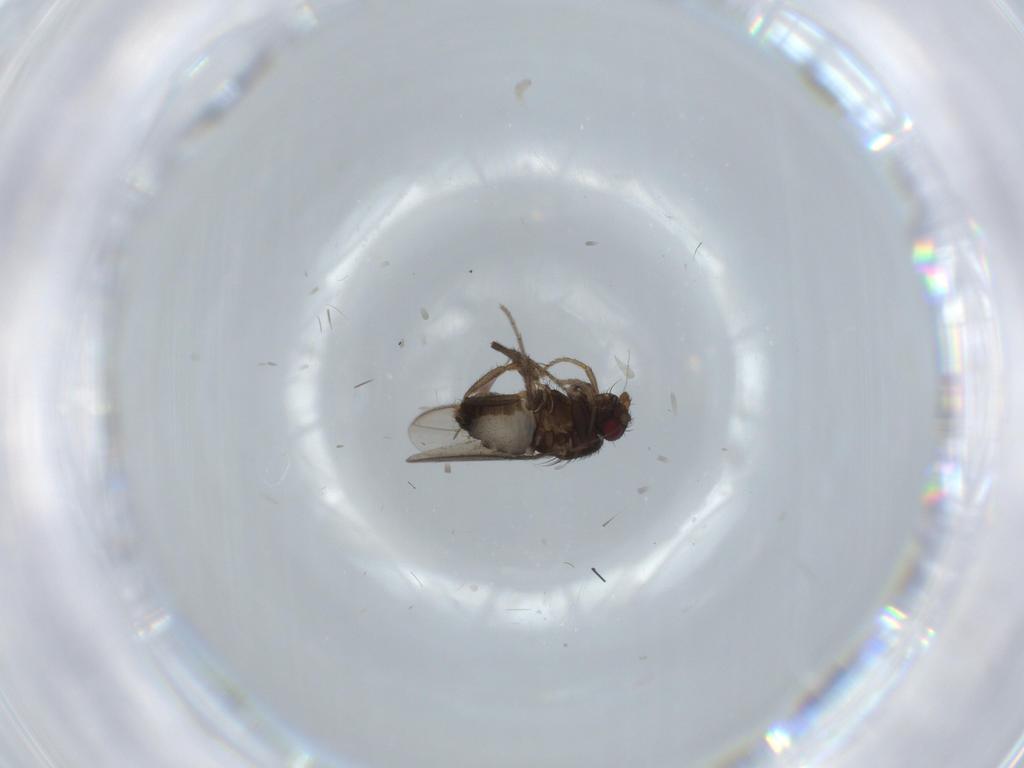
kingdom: Animalia
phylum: Arthropoda
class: Insecta
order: Diptera
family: Sphaeroceridae
